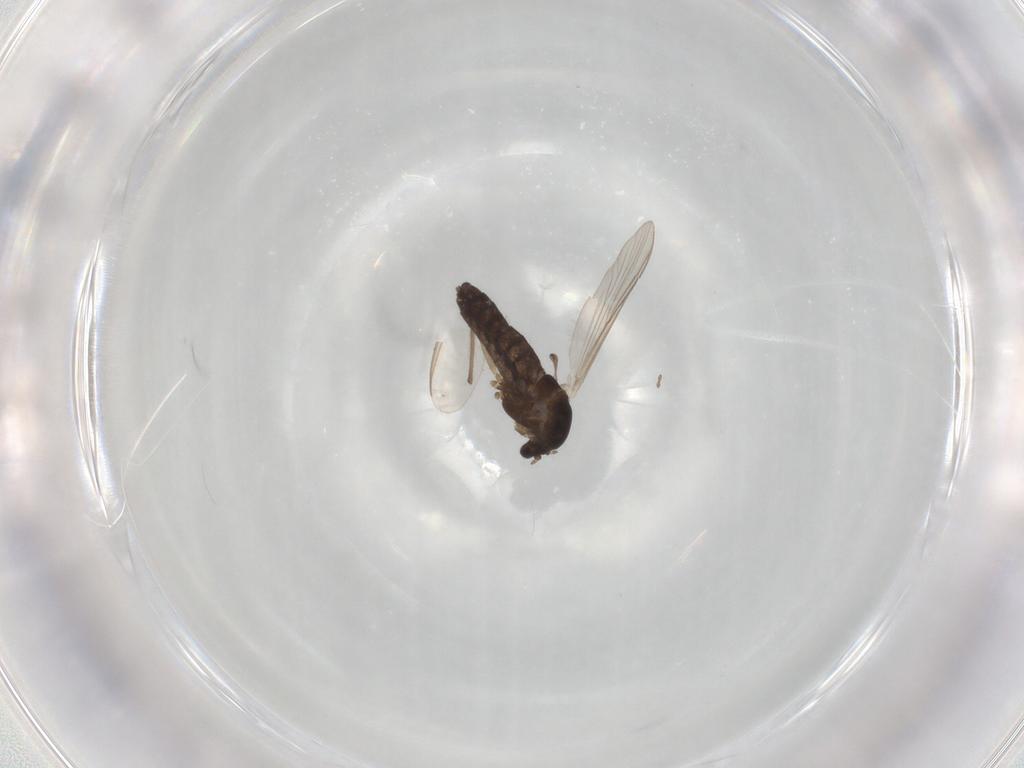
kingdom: Animalia
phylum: Arthropoda
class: Insecta
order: Diptera
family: Chironomidae
